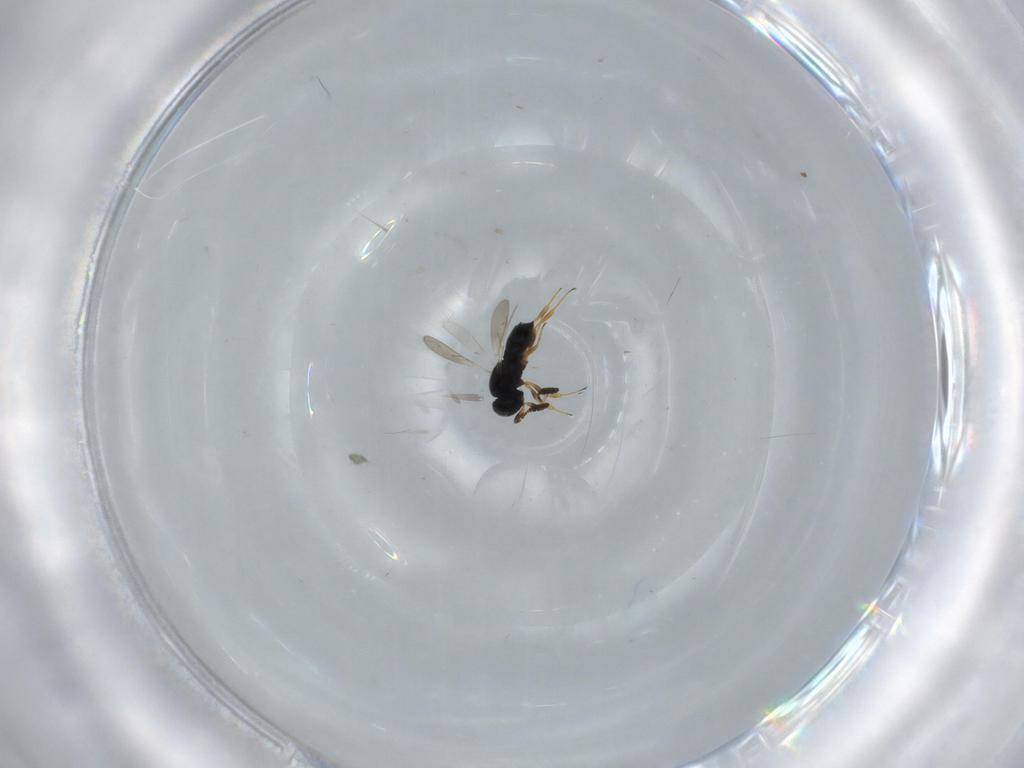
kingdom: Animalia
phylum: Arthropoda
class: Insecta
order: Hymenoptera
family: Scelionidae
